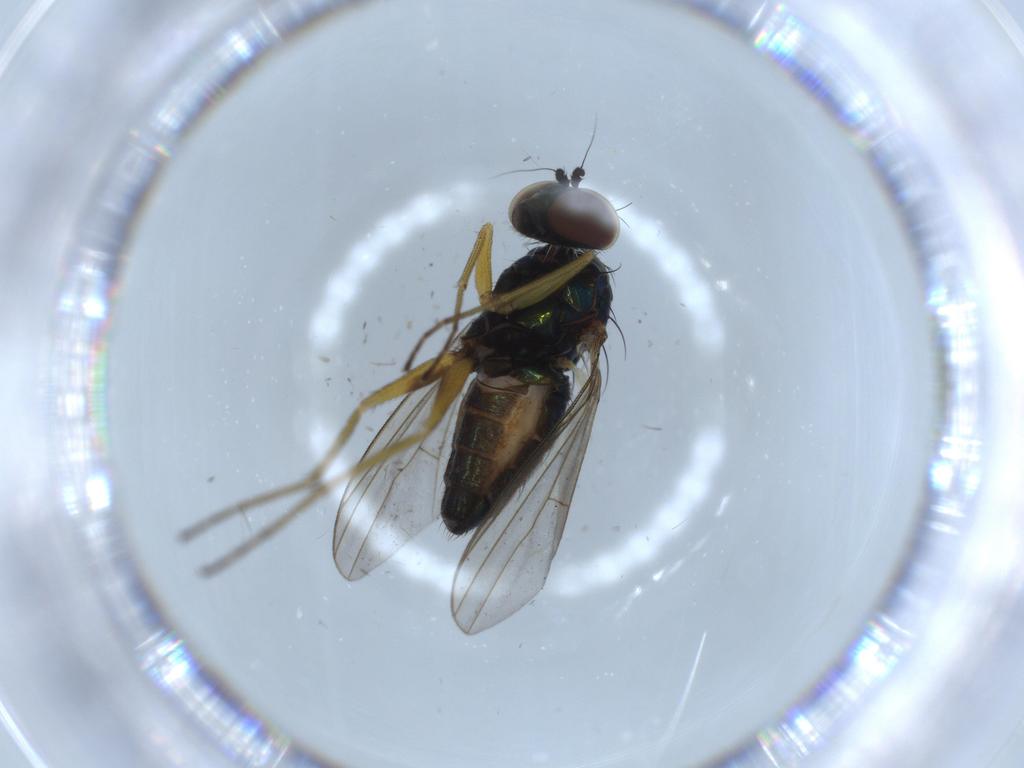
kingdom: Animalia
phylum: Arthropoda
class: Insecta
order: Diptera
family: Dolichopodidae
